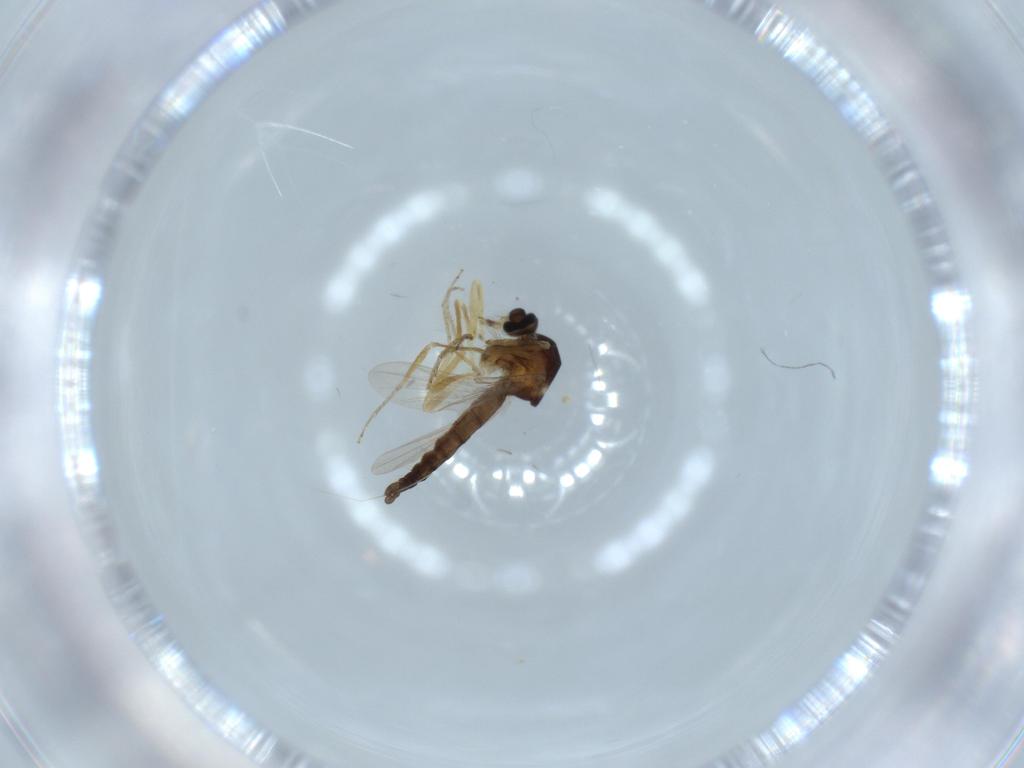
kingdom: Animalia
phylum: Arthropoda
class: Insecta
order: Diptera
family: Ceratopogonidae
